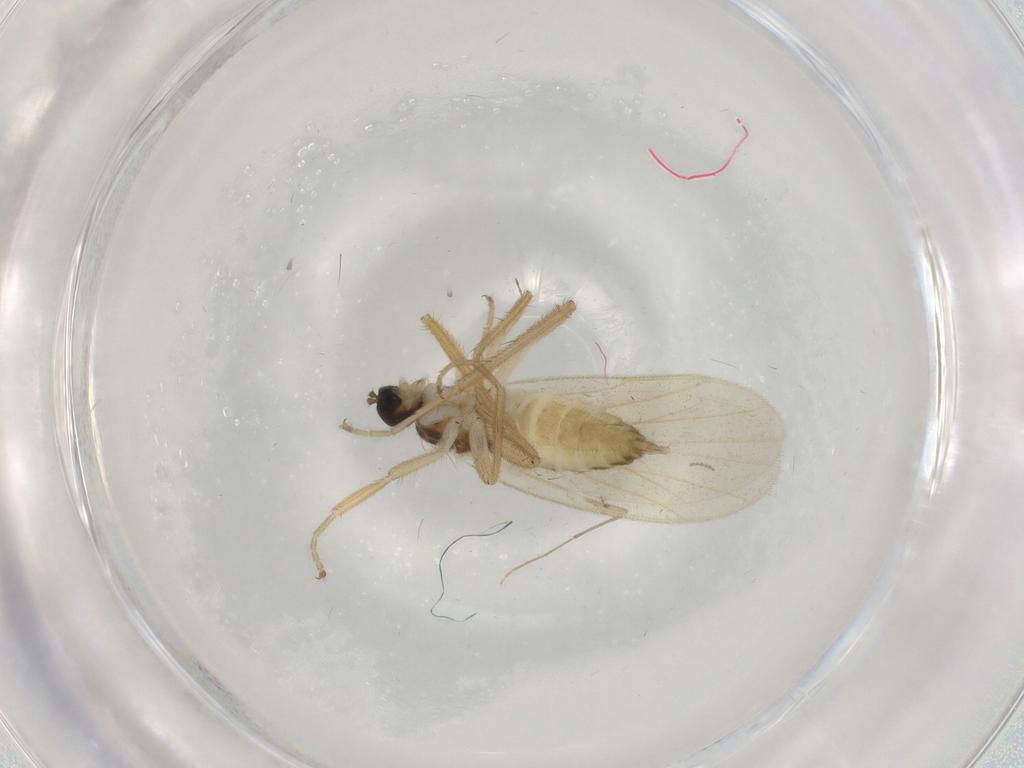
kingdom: Animalia
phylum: Arthropoda
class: Insecta
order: Diptera
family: Hybotidae
